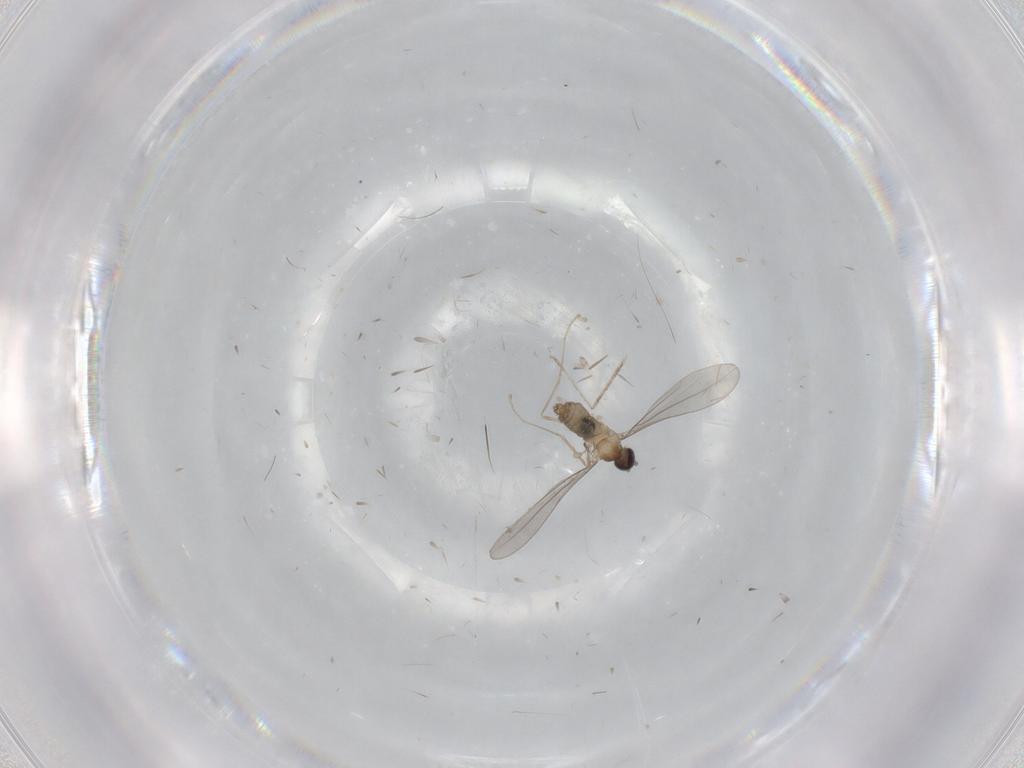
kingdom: Animalia
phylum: Arthropoda
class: Insecta
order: Diptera
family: Cecidomyiidae
